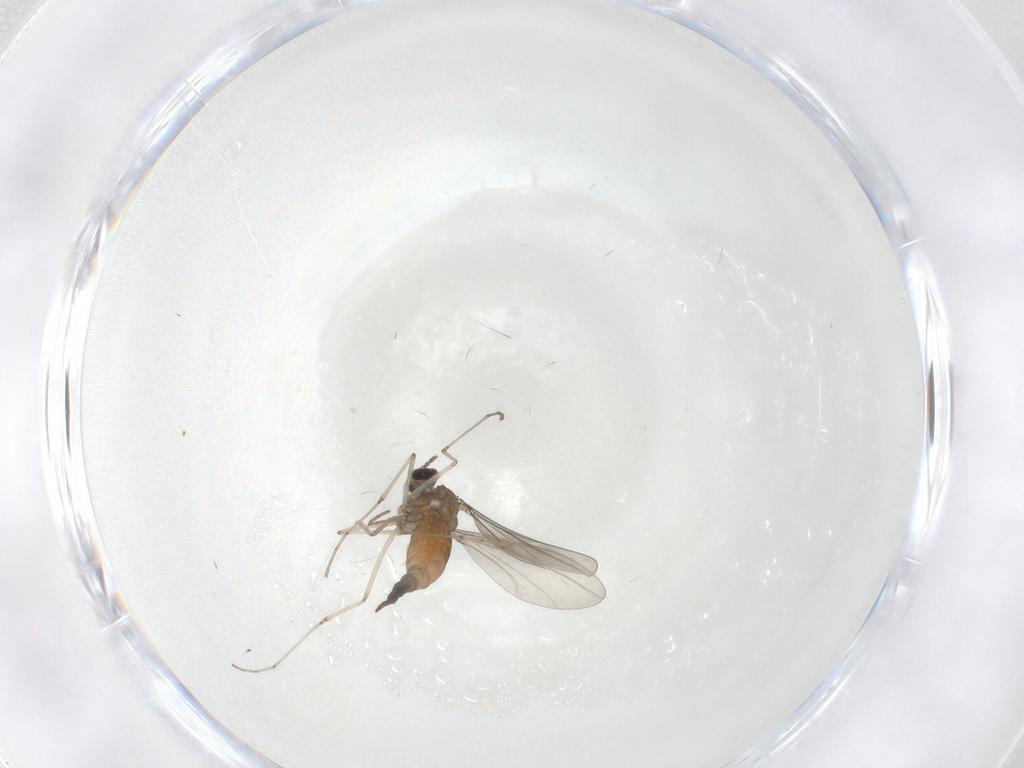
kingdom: Animalia
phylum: Arthropoda
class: Insecta
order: Diptera
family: Cecidomyiidae
